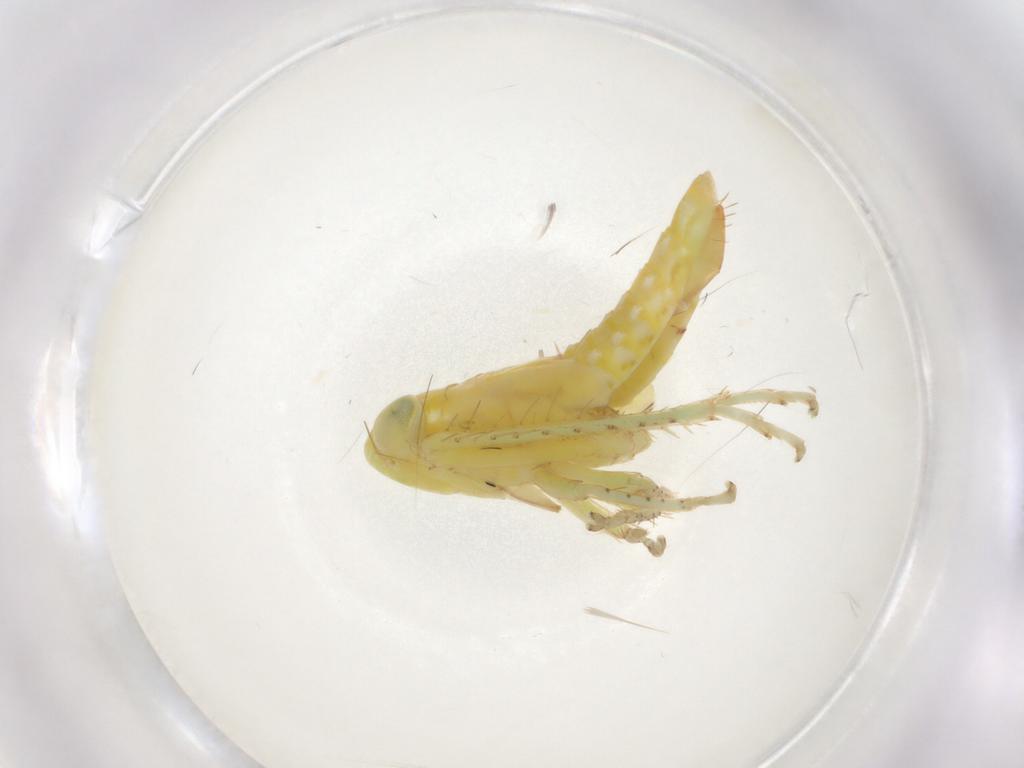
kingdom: Animalia
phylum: Arthropoda
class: Insecta
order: Hemiptera
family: Cicadellidae
